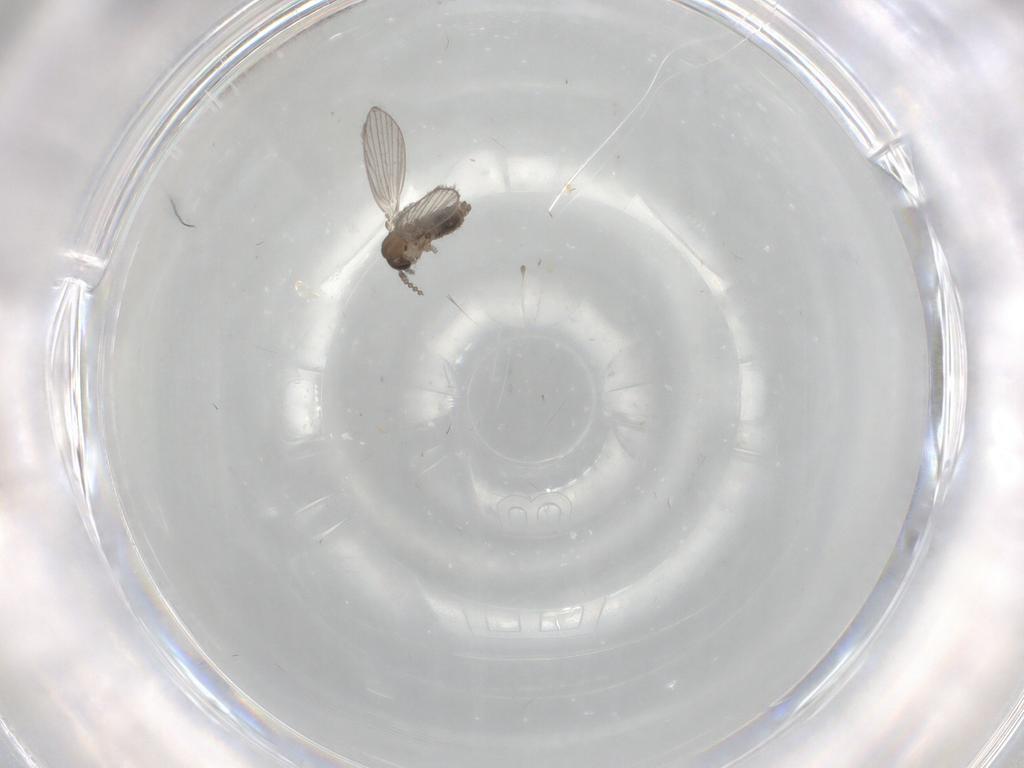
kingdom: Animalia
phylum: Arthropoda
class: Insecta
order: Diptera
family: Psychodidae
